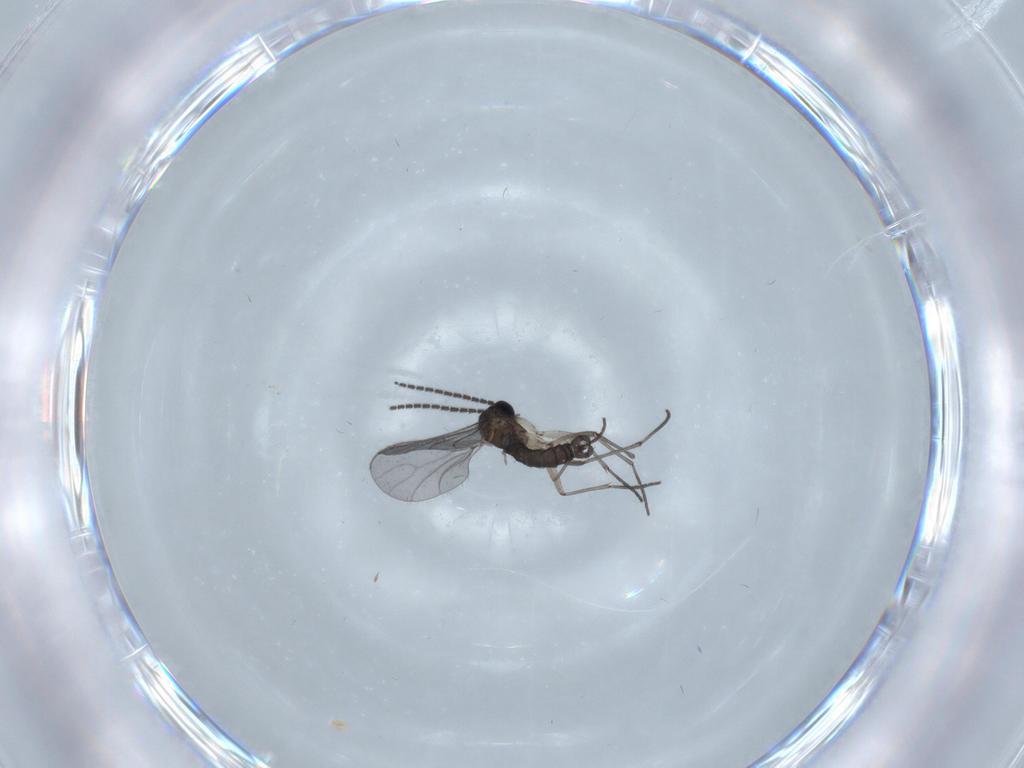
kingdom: Animalia
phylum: Arthropoda
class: Insecta
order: Diptera
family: Sciaridae
